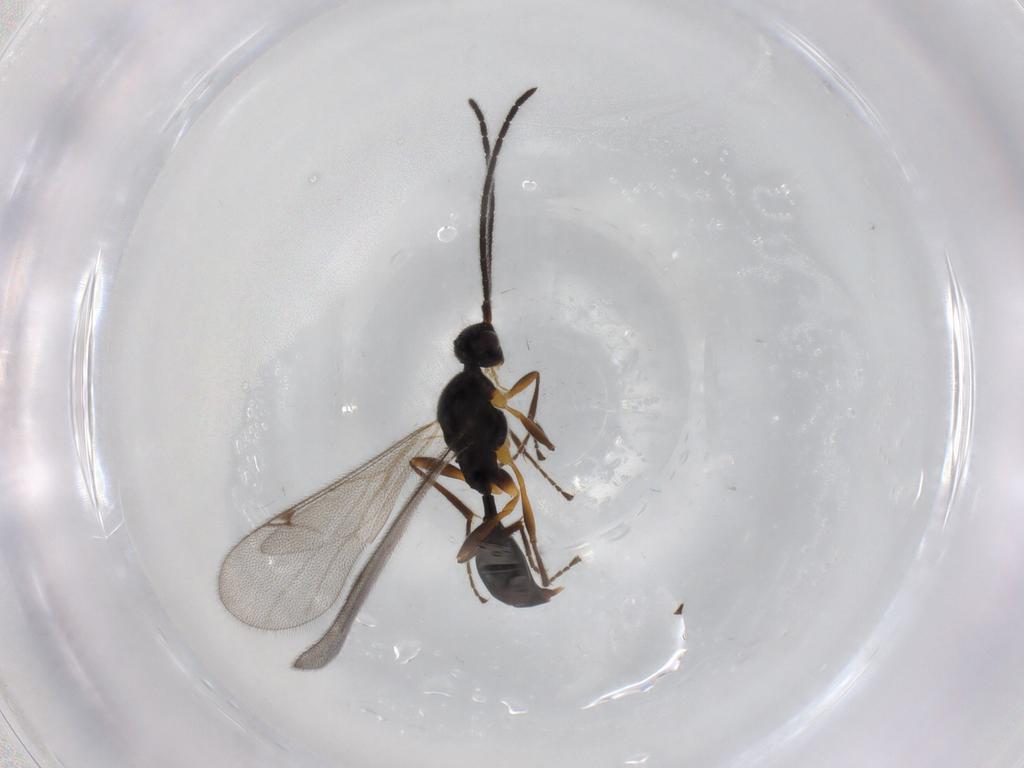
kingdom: Animalia
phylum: Arthropoda
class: Insecta
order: Hymenoptera
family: Proctotrupidae
